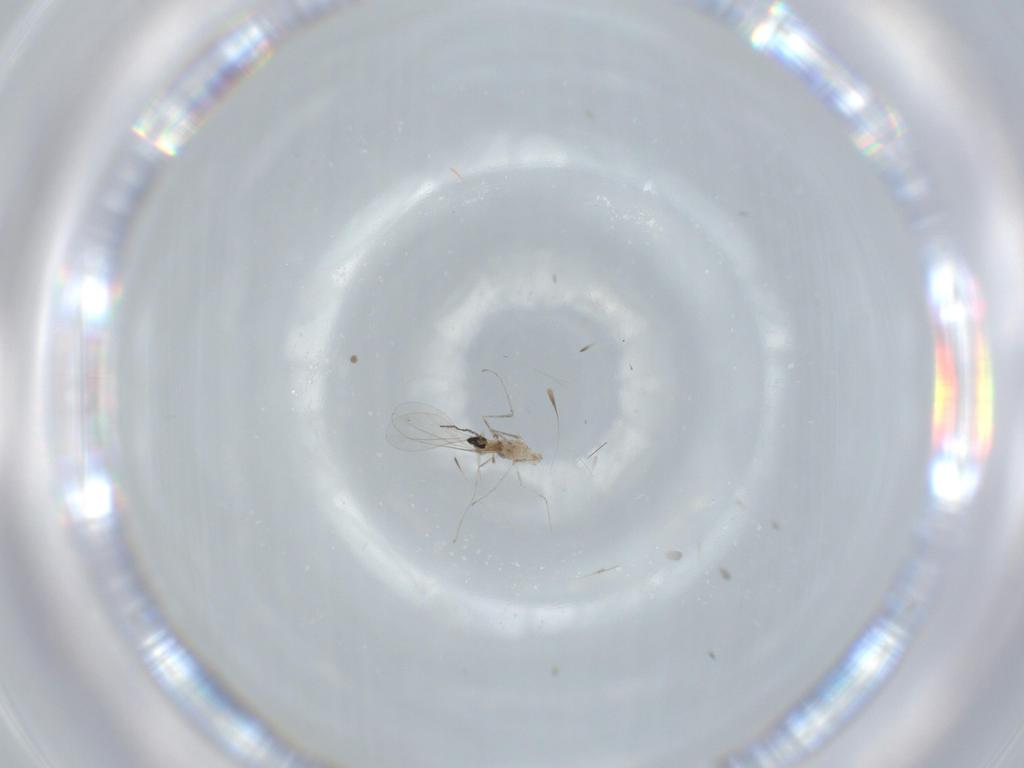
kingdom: Animalia
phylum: Arthropoda
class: Insecta
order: Diptera
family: Cecidomyiidae
